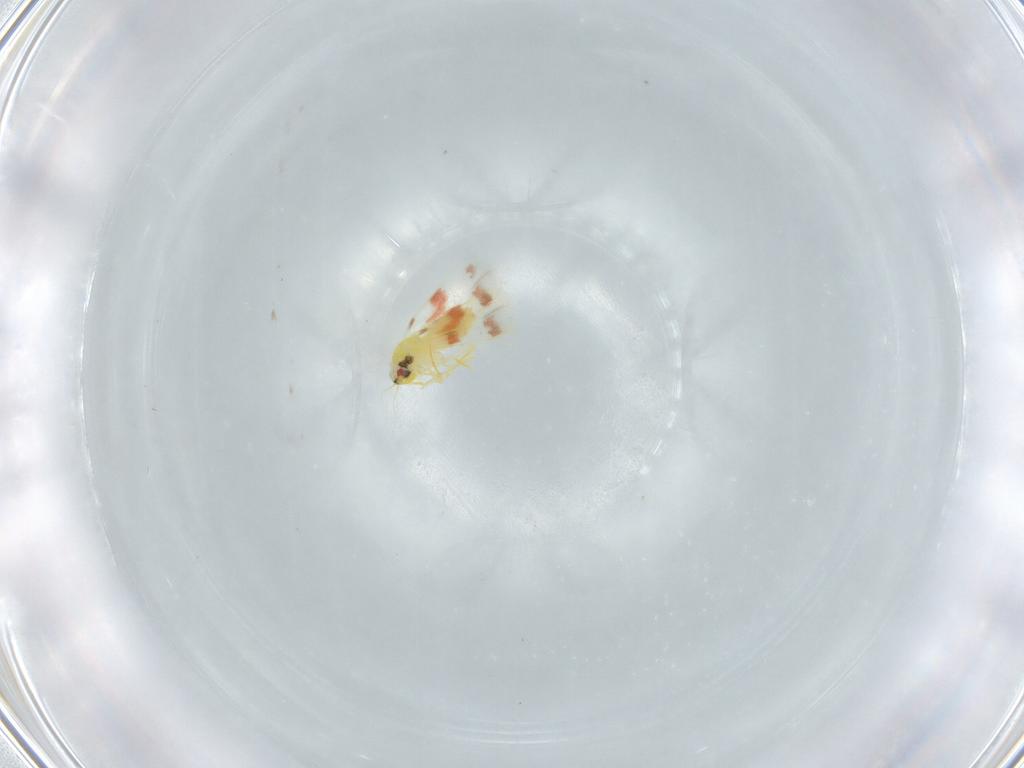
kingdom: Animalia
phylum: Arthropoda
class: Insecta
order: Hemiptera
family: Aleyrodidae
